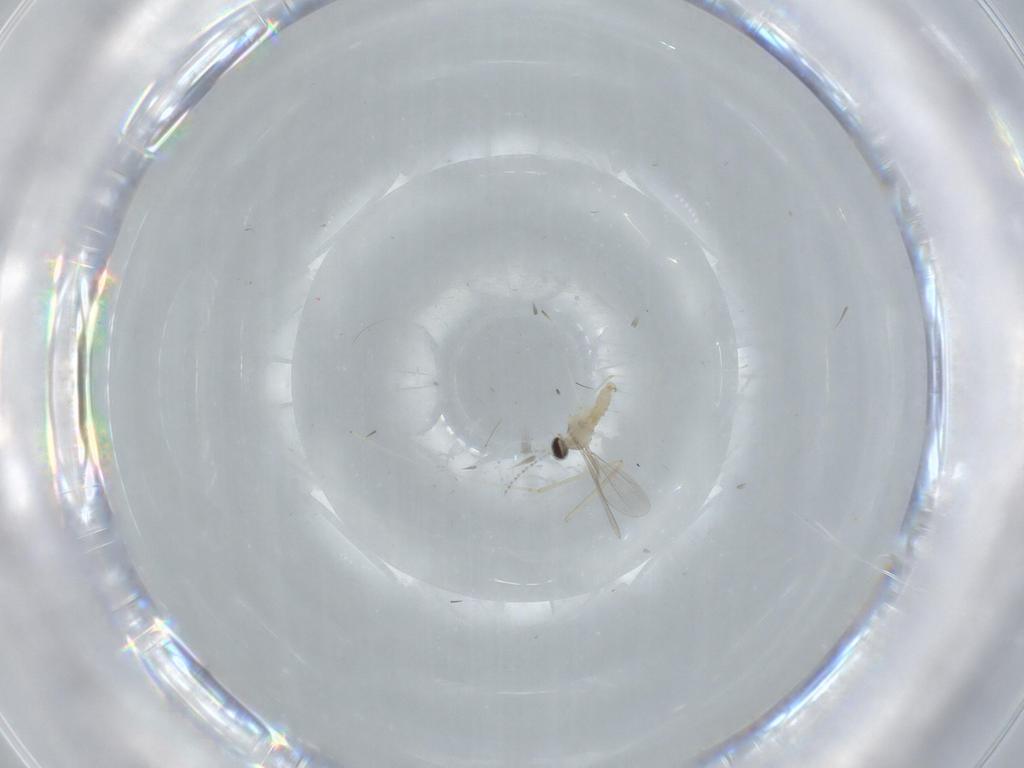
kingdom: Animalia
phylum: Arthropoda
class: Insecta
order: Diptera
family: Cecidomyiidae
